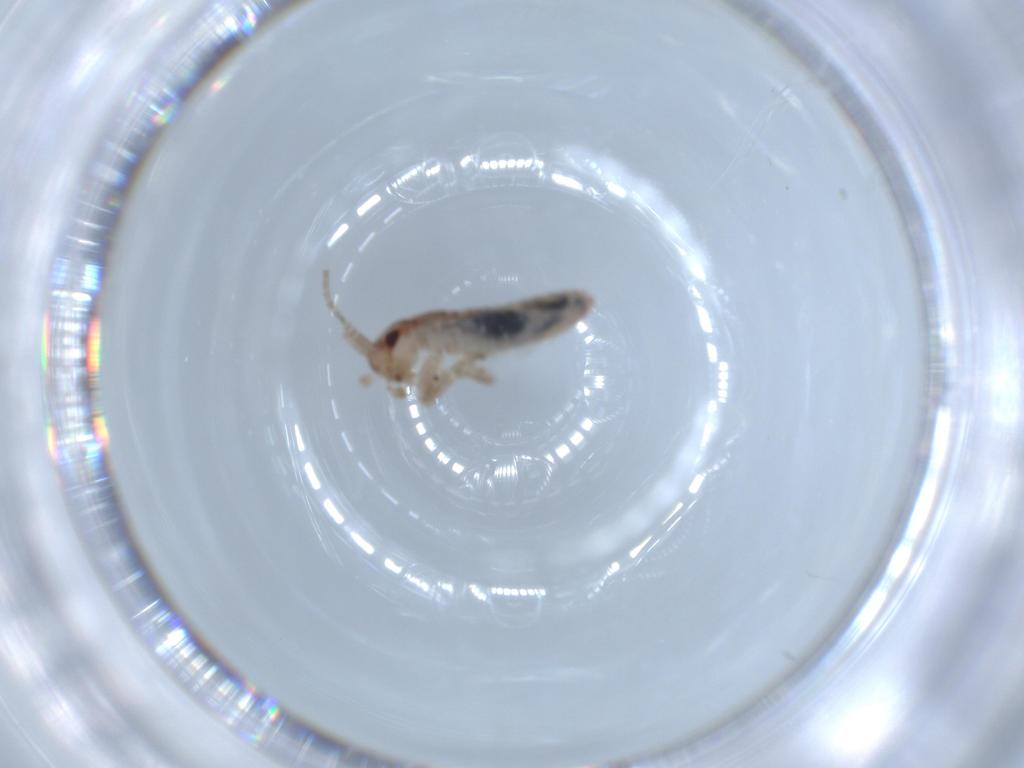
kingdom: Animalia
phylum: Arthropoda
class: Insecta
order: Orthoptera
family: Mogoplistidae
